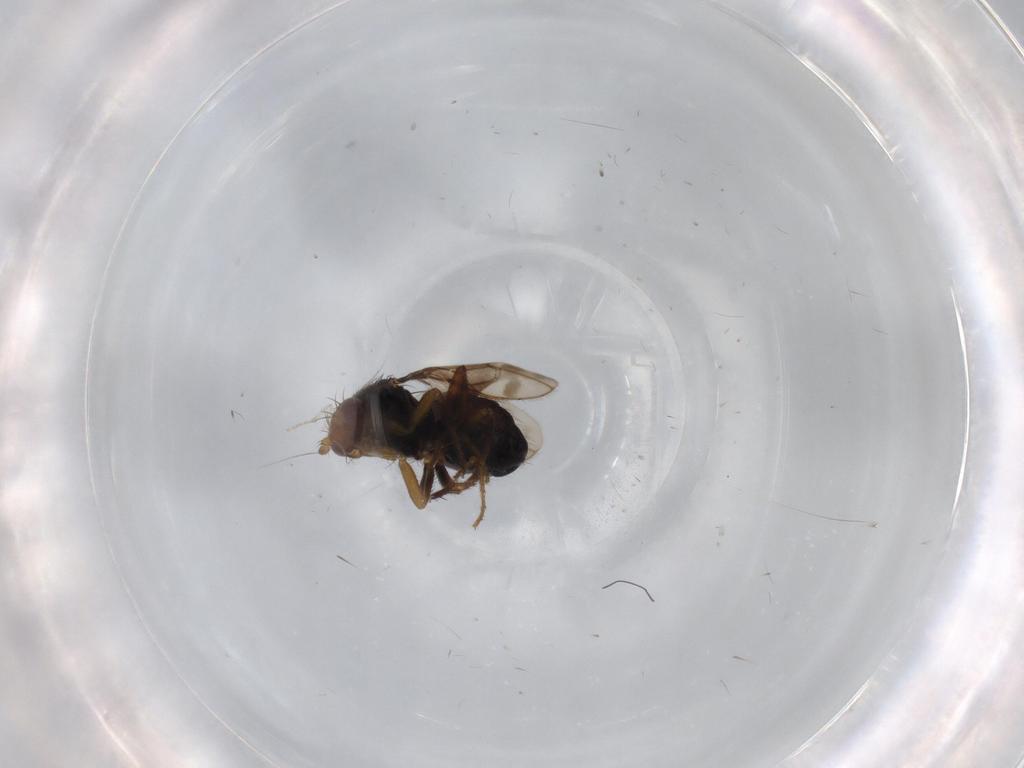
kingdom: Animalia
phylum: Arthropoda
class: Insecta
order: Diptera
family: Sphaeroceridae
